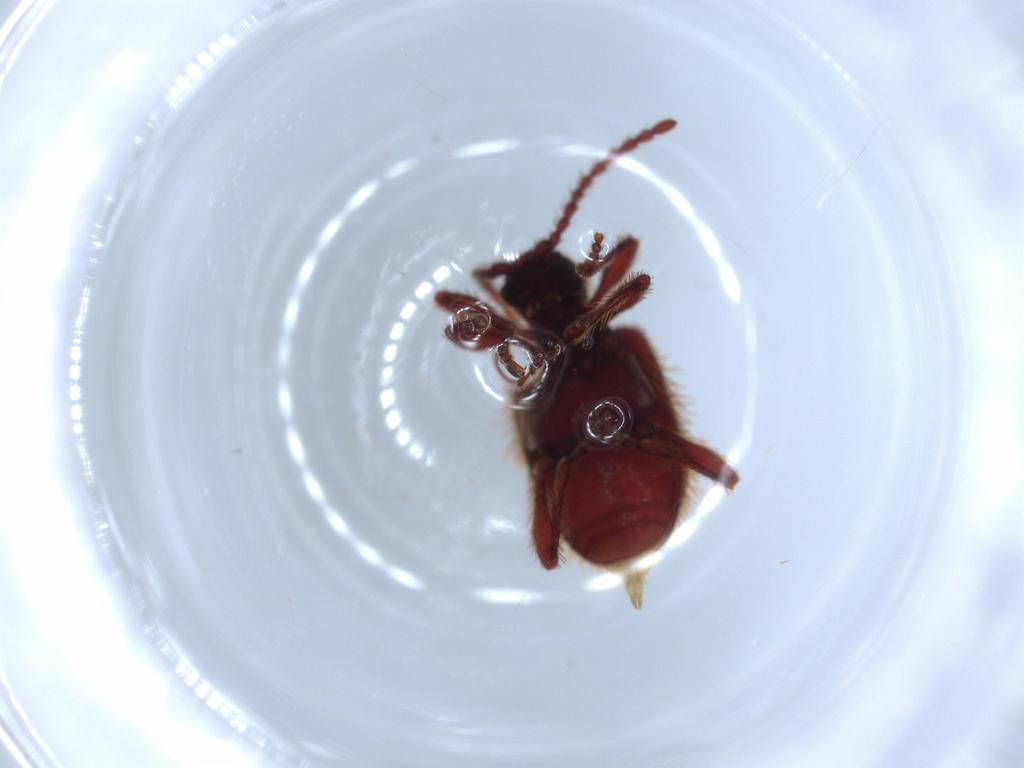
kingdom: Animalia
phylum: Arthropoda
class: Insecta
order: Coleoptera
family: Ptinidae
